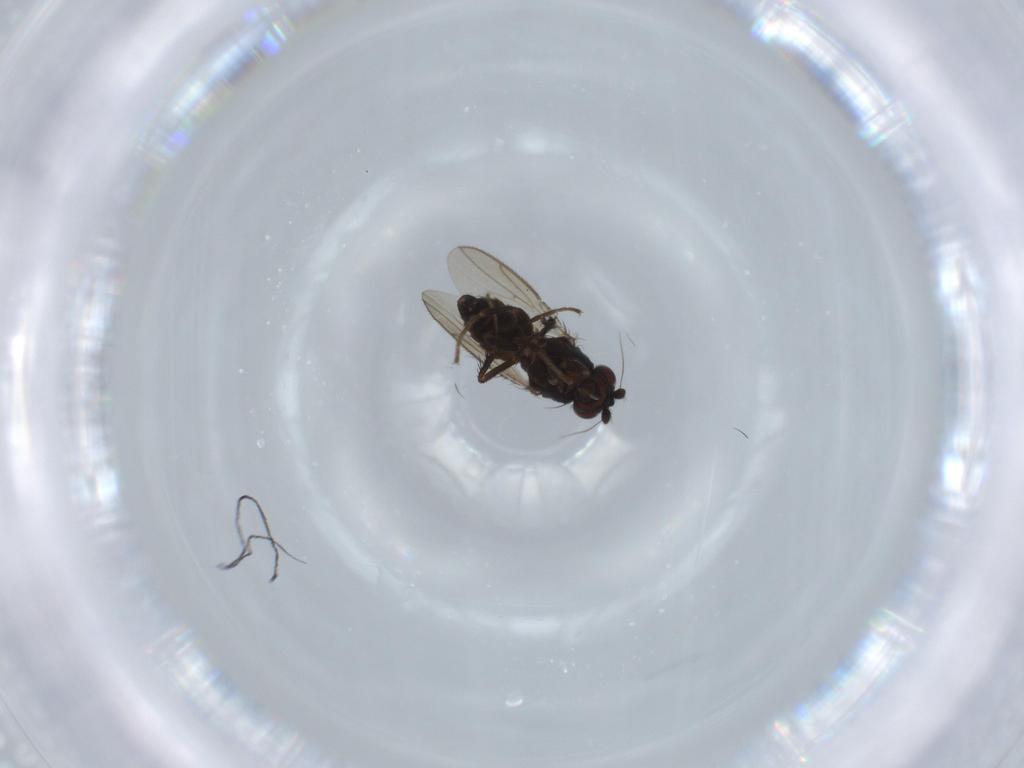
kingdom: Animalia
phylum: Arthropoda
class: Insecta
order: Diptera
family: Sphaeroceridae
